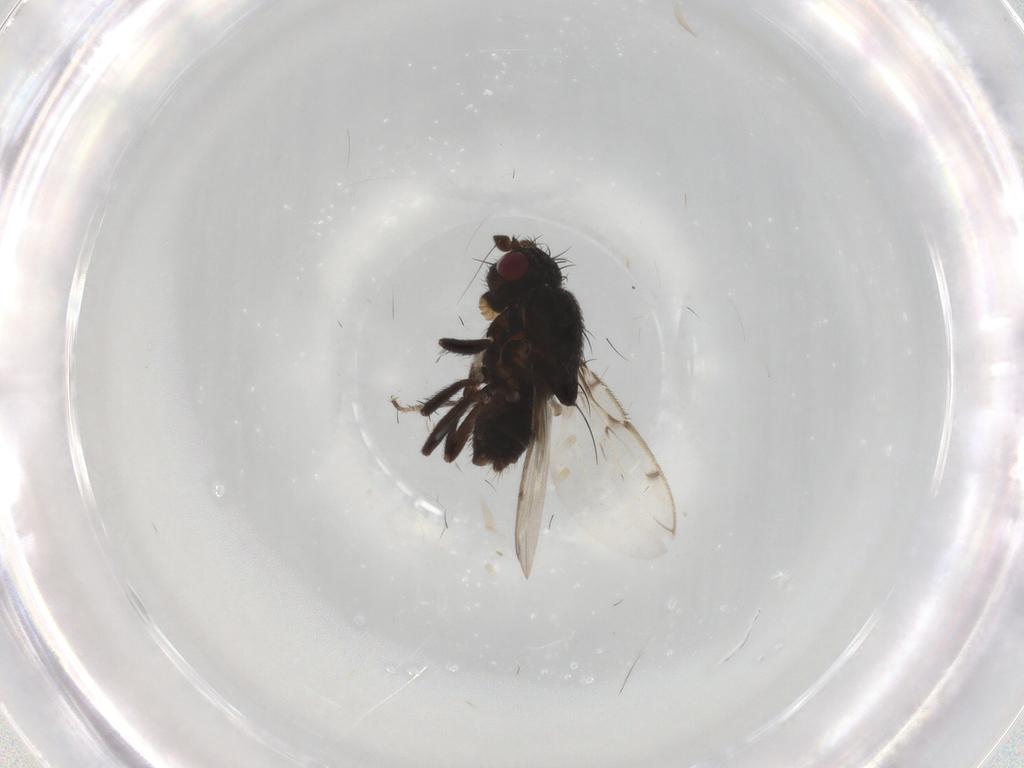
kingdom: Animalia
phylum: Arthropoda
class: Insecta
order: Diptera
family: Sphaeroceridae
